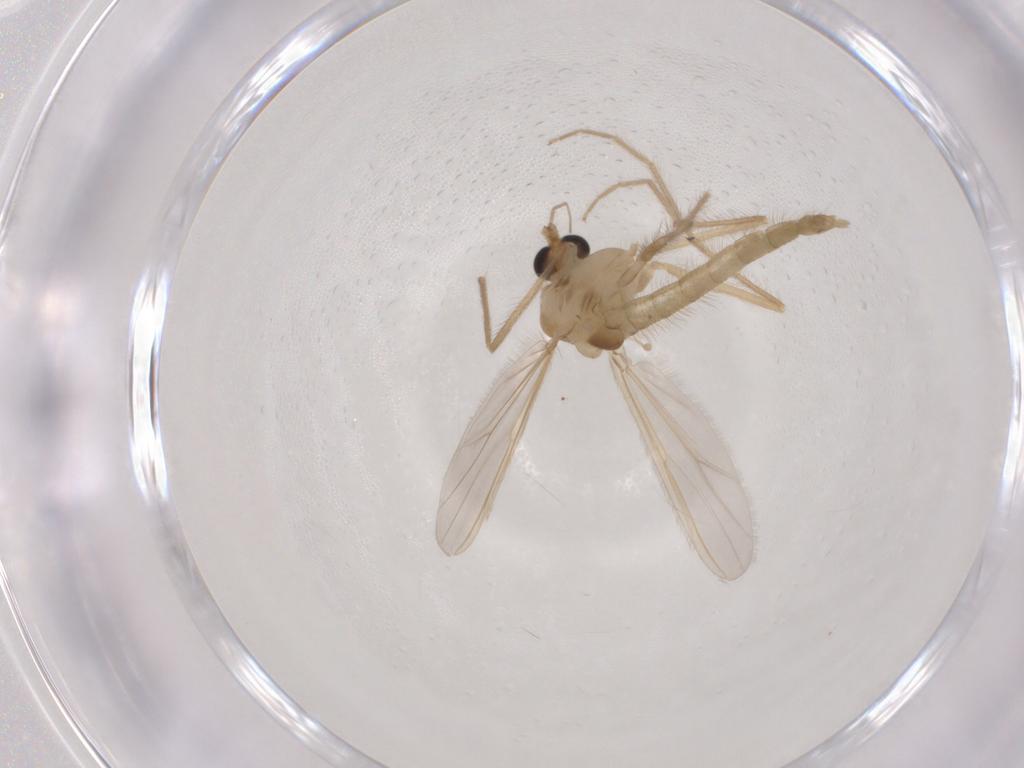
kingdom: Animalia
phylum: Arthropoda
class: Insecta
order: Diptera
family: Chironomidae
